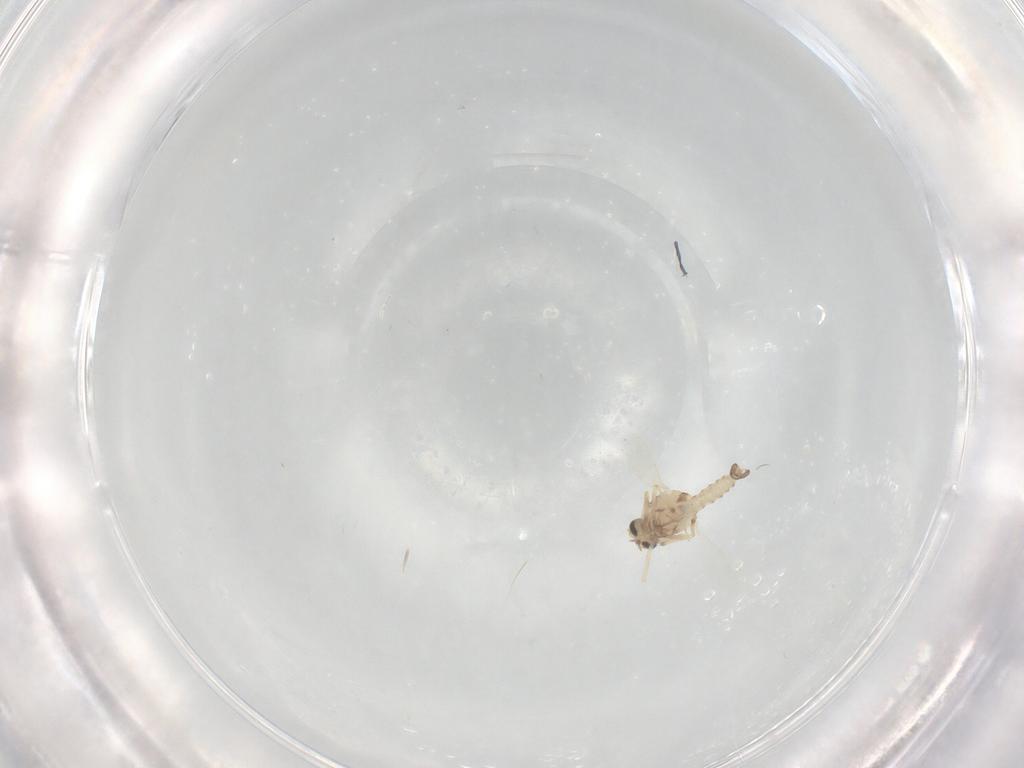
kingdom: Animalia
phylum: Arthropoda
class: Insecta
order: Diptera
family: Ceratopogonidae
